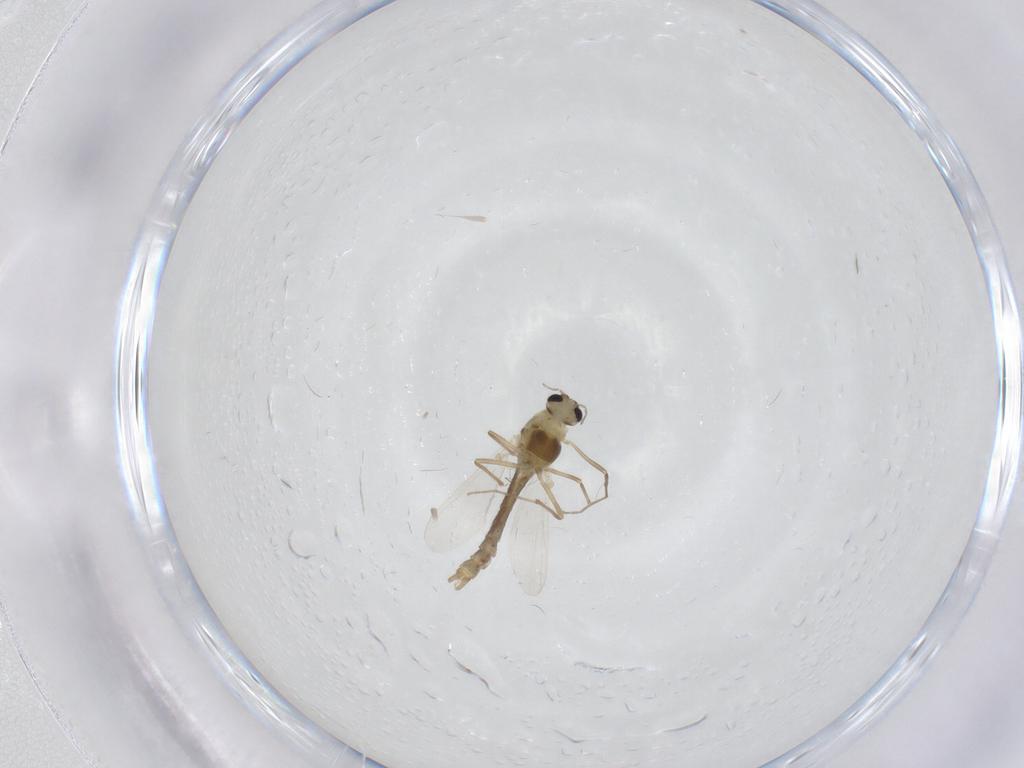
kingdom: Animalia
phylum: Arthropoda
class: Insecta
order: Diptera
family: Chironomidae
